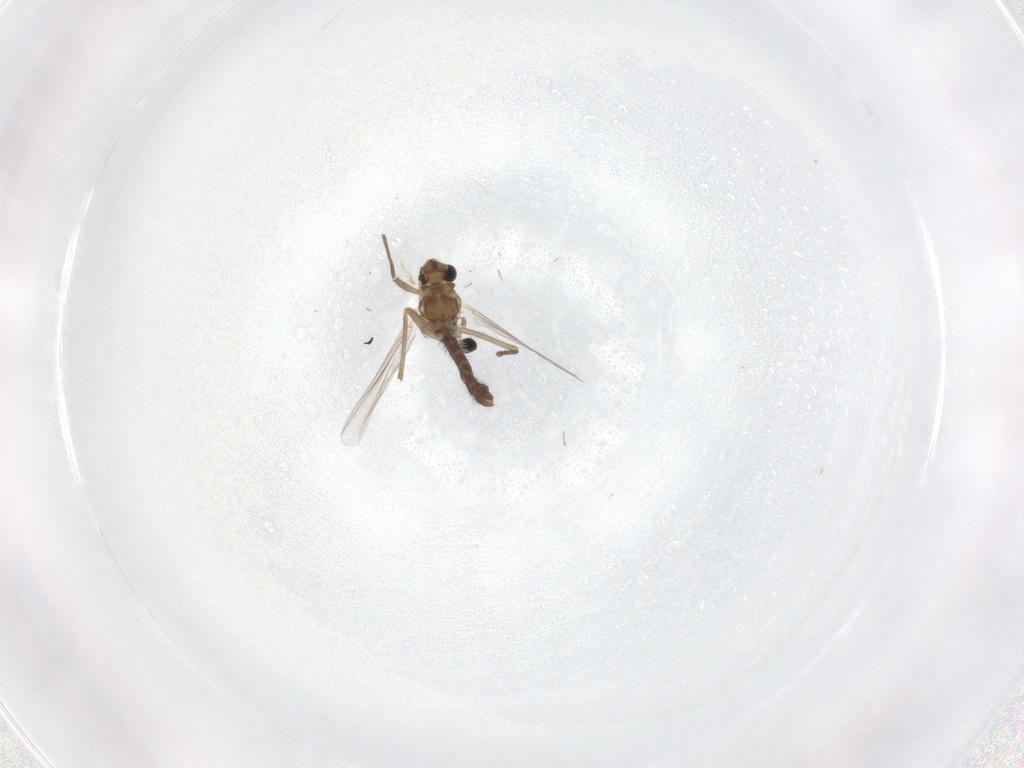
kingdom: Animalia
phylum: Arthropoda
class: Insecta
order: Diptera
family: Chironomidae
